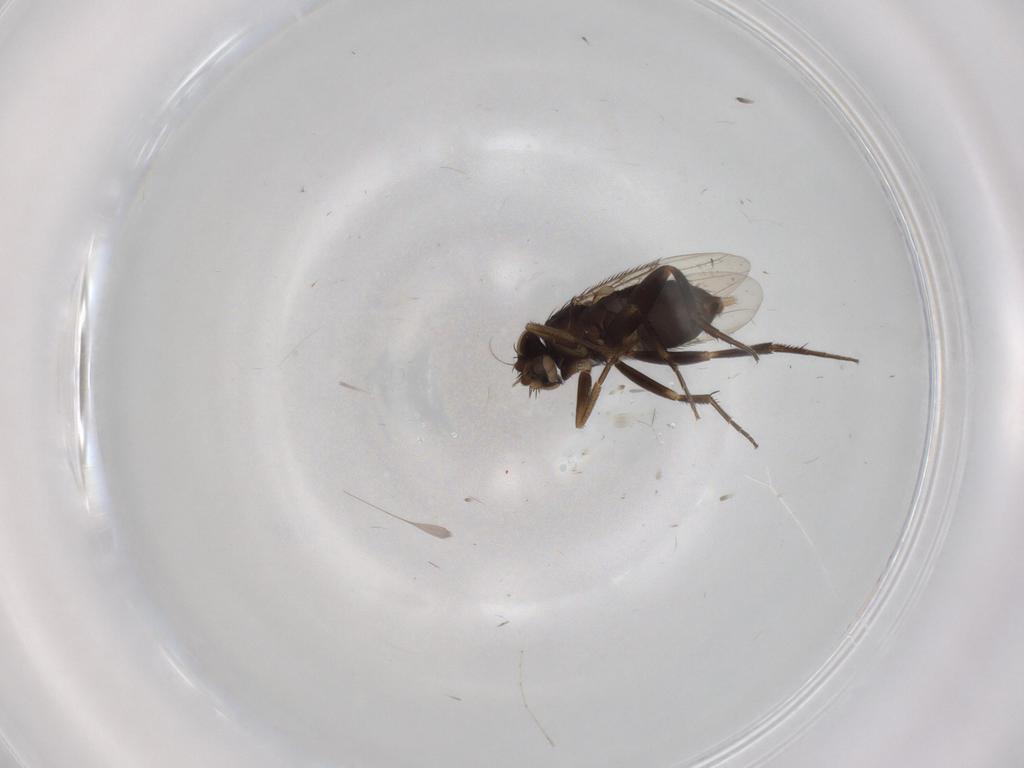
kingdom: Animalia
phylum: Arthropoda
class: Insecta
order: Diptera
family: Phoridae
